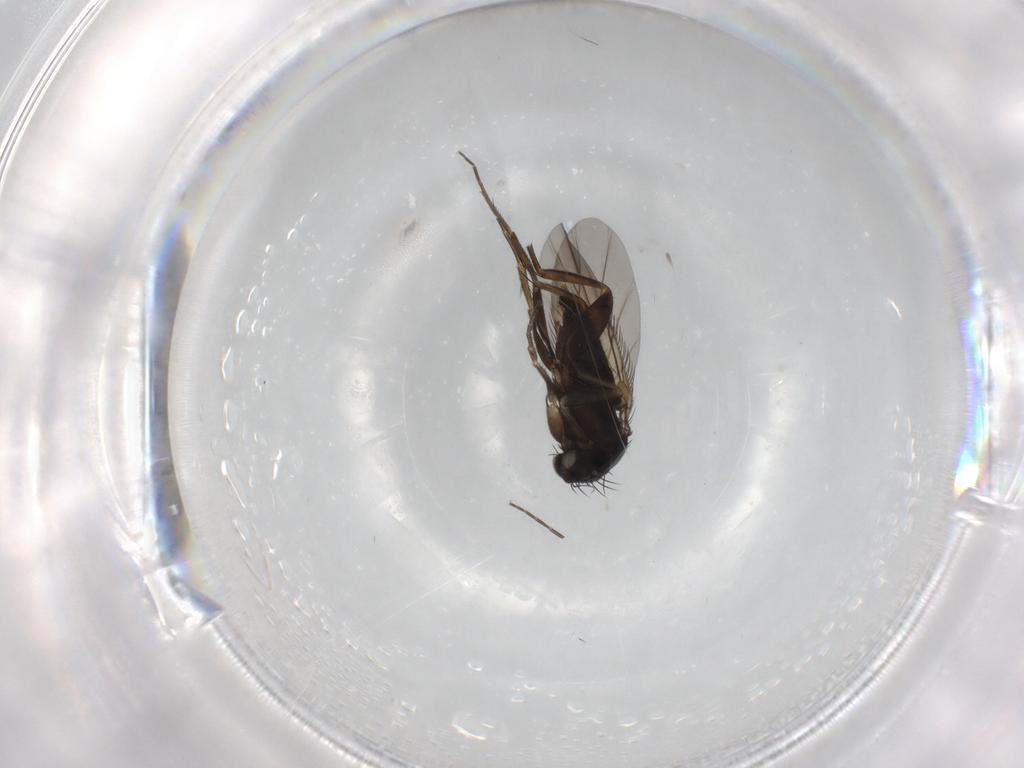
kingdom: Animalia
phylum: Arthropoda
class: Insecta
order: Diptera
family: Phoridae
